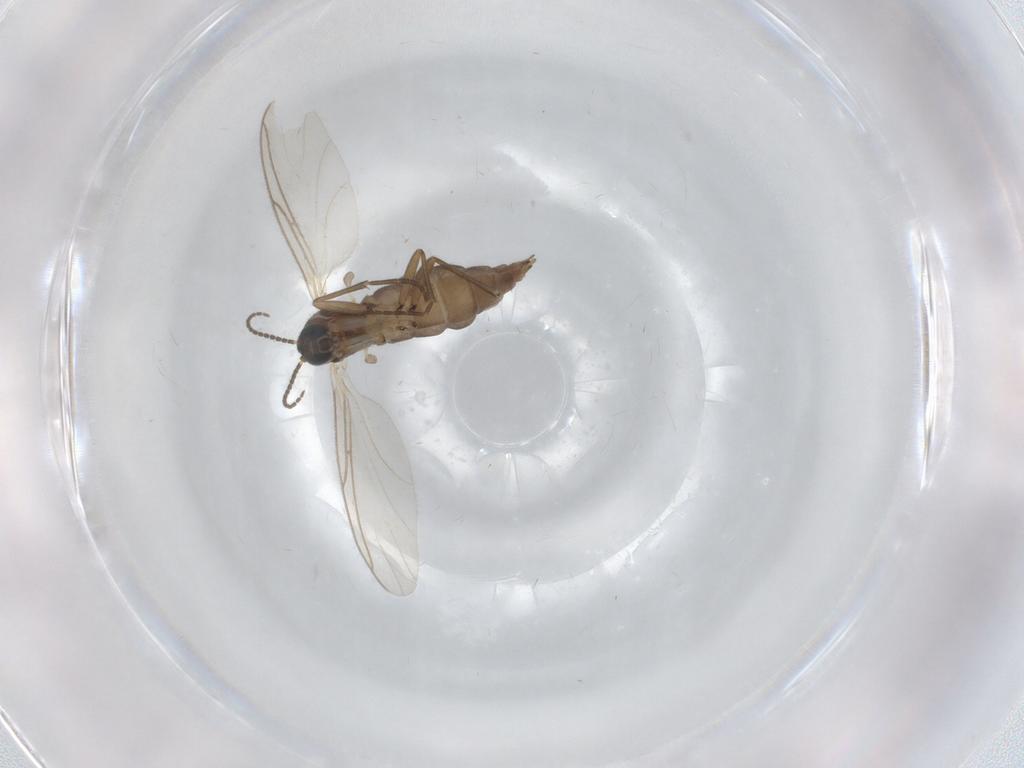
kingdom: Animalia
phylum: Arthropoda
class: Insecta
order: Diptera
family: Sciaridae
